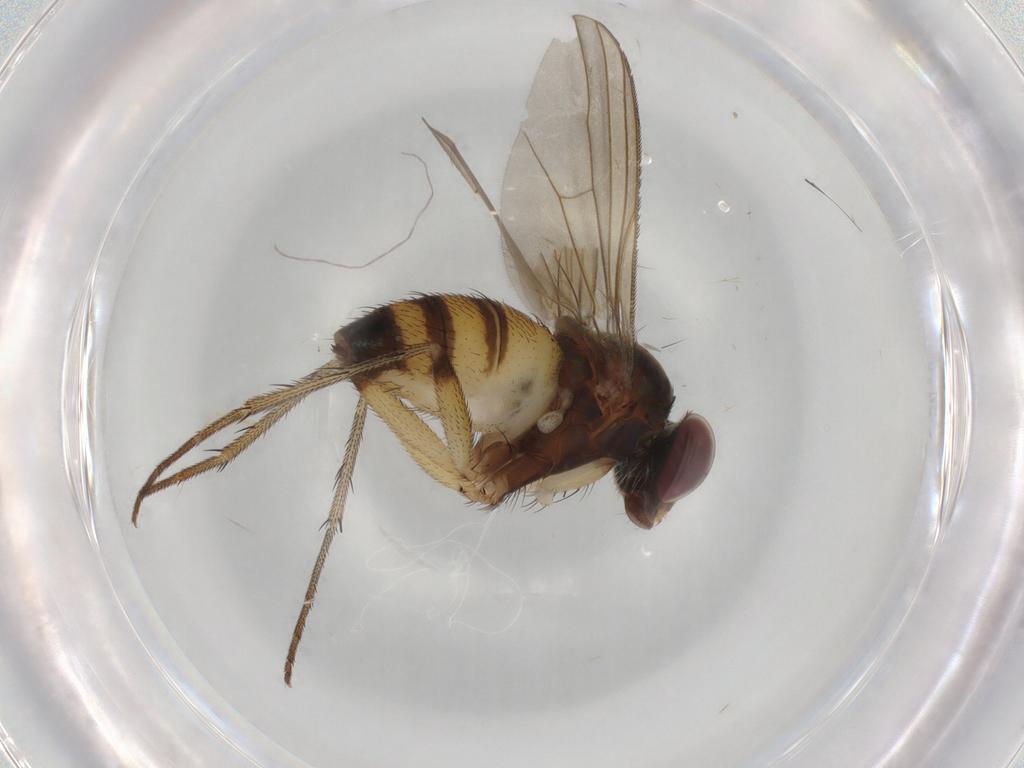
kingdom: Animalia
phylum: Arthropoda
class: Insecta
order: Diptera
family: Dolichopodidae
